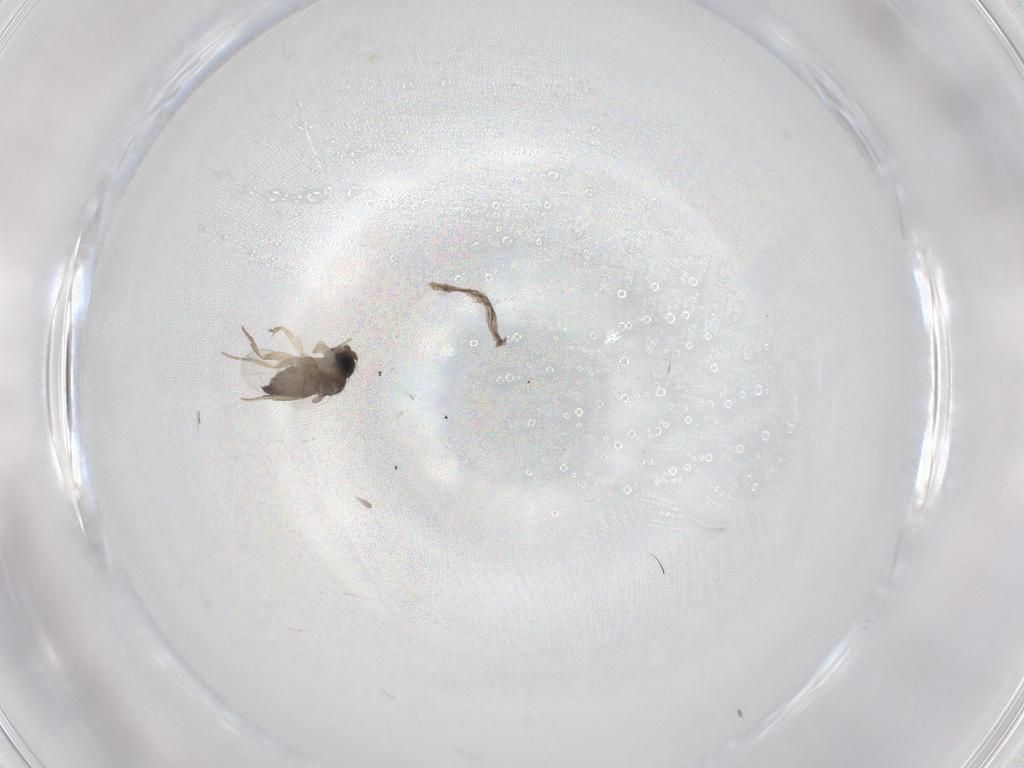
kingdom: Animalia
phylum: Arthropoda
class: Insecta
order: Diptera
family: Phoridae
